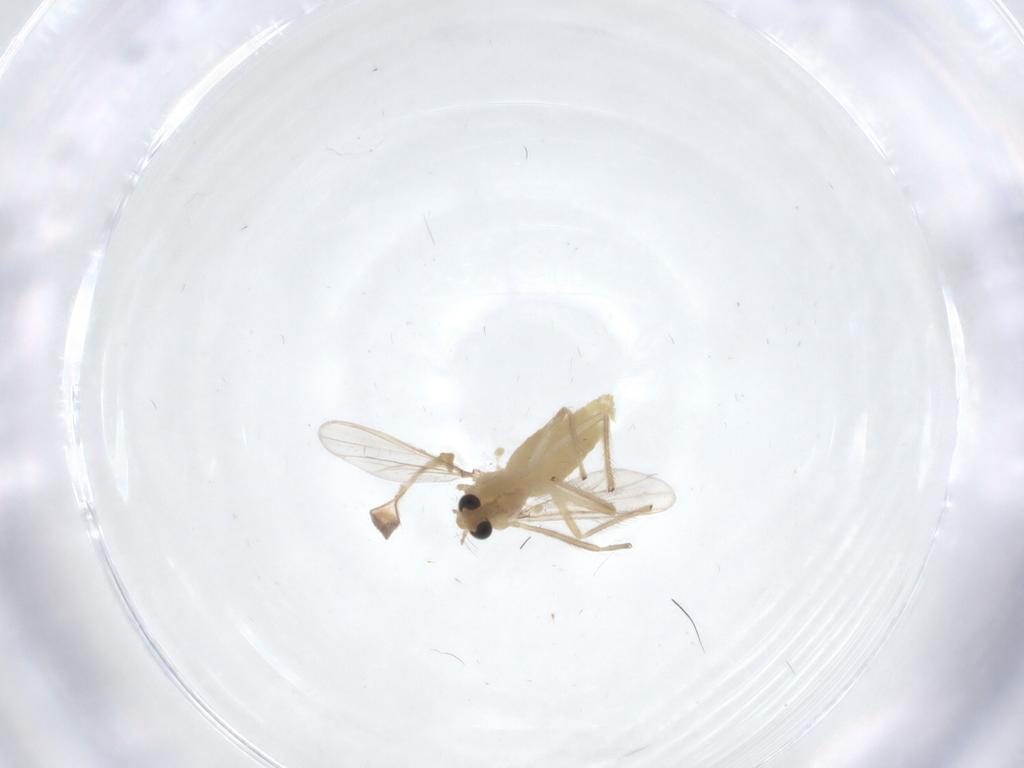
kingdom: Animalia
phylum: Arthropoda
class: Insecta
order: Diptera
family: Chironomidae
